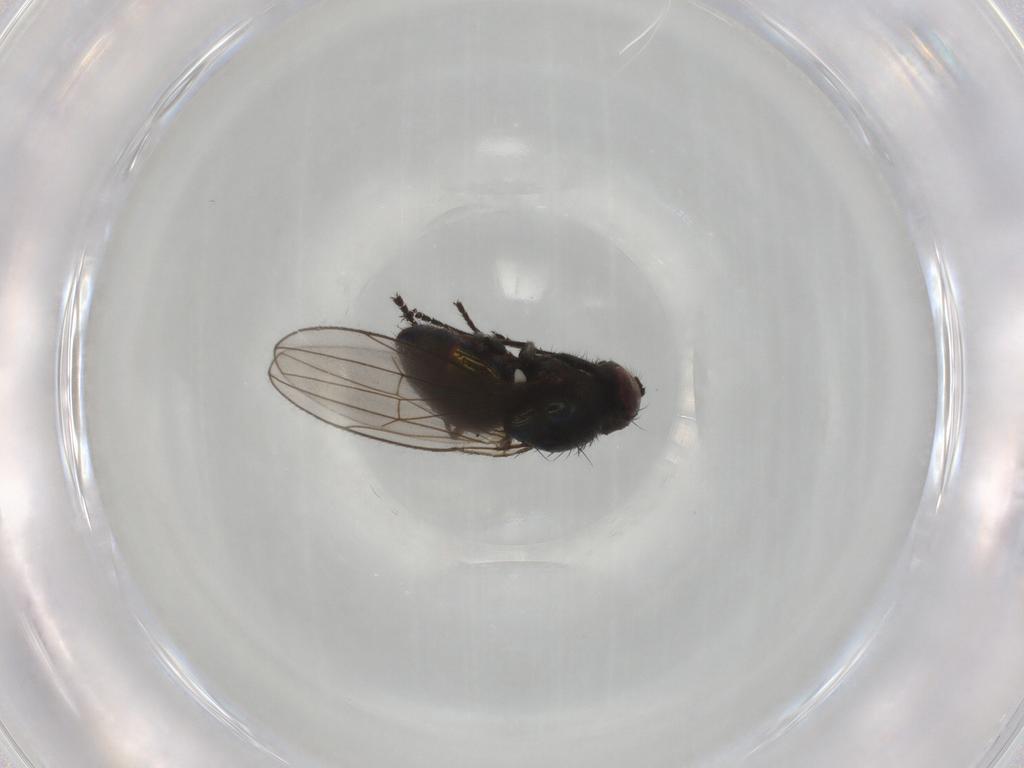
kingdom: Animalia
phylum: Arthropoda
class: Insecta
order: Diptera
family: Ephydridae
